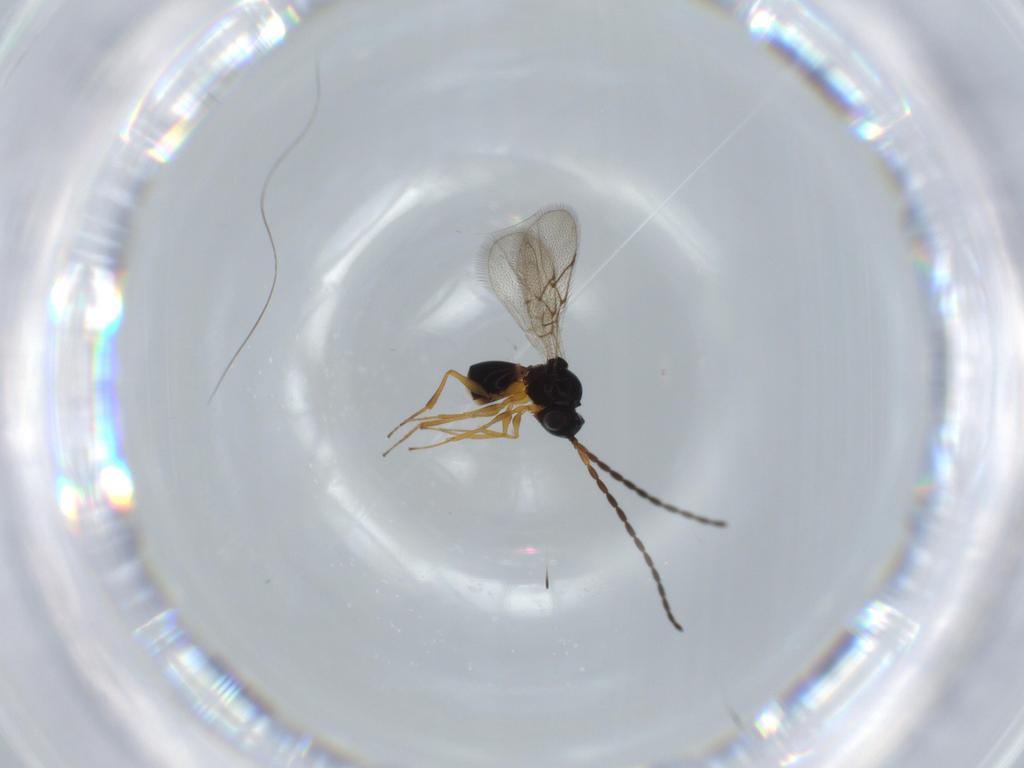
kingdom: Animalia
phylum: Arthropoda
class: Insecta
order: Hymenoptera
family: Figitidae
